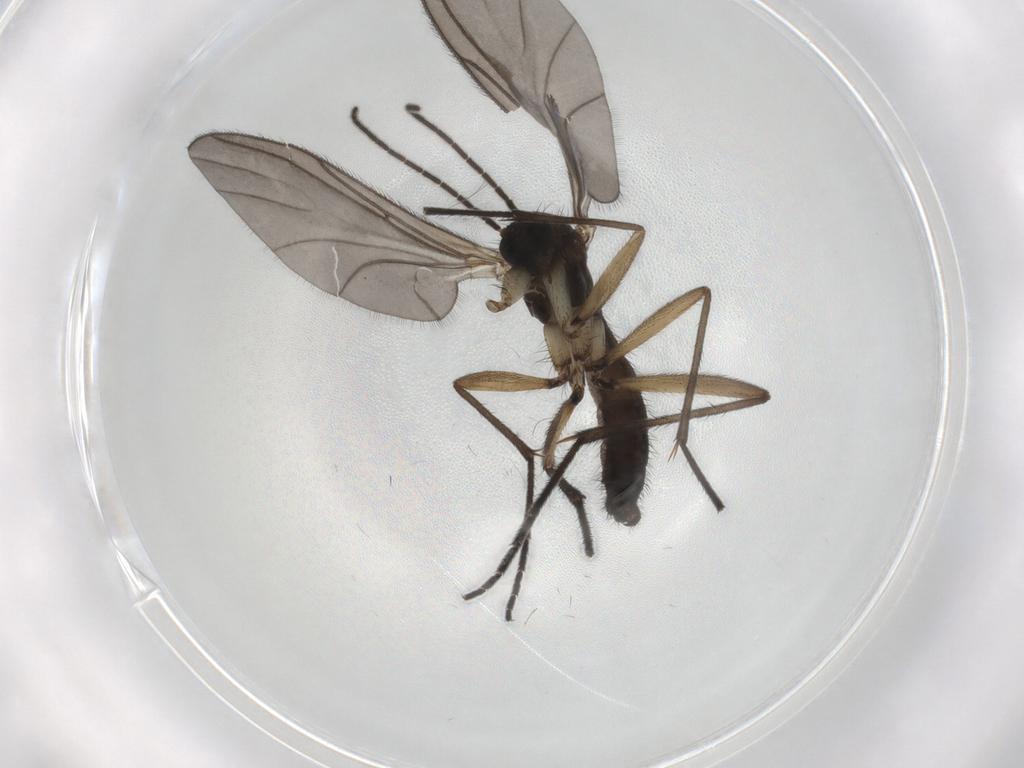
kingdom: Animalia
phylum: Arthropoda
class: Insecta
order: Diptera
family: Sciaridae
